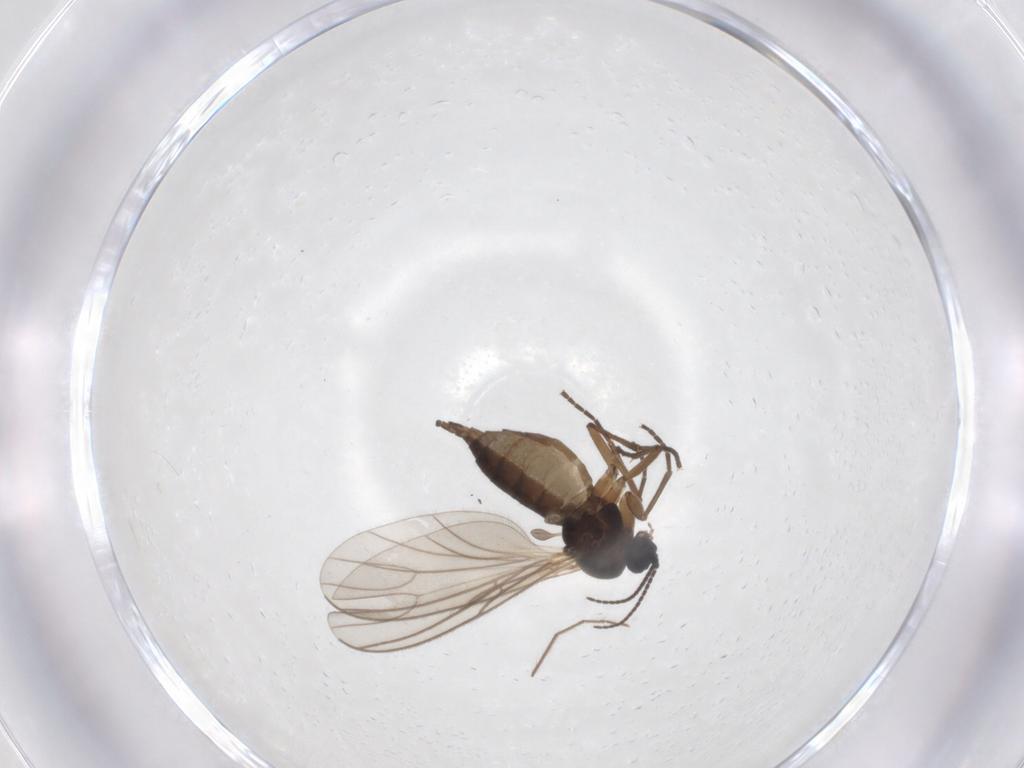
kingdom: Animalia
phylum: Arthropoda
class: Insecta
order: Diptera
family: Sciaridae
